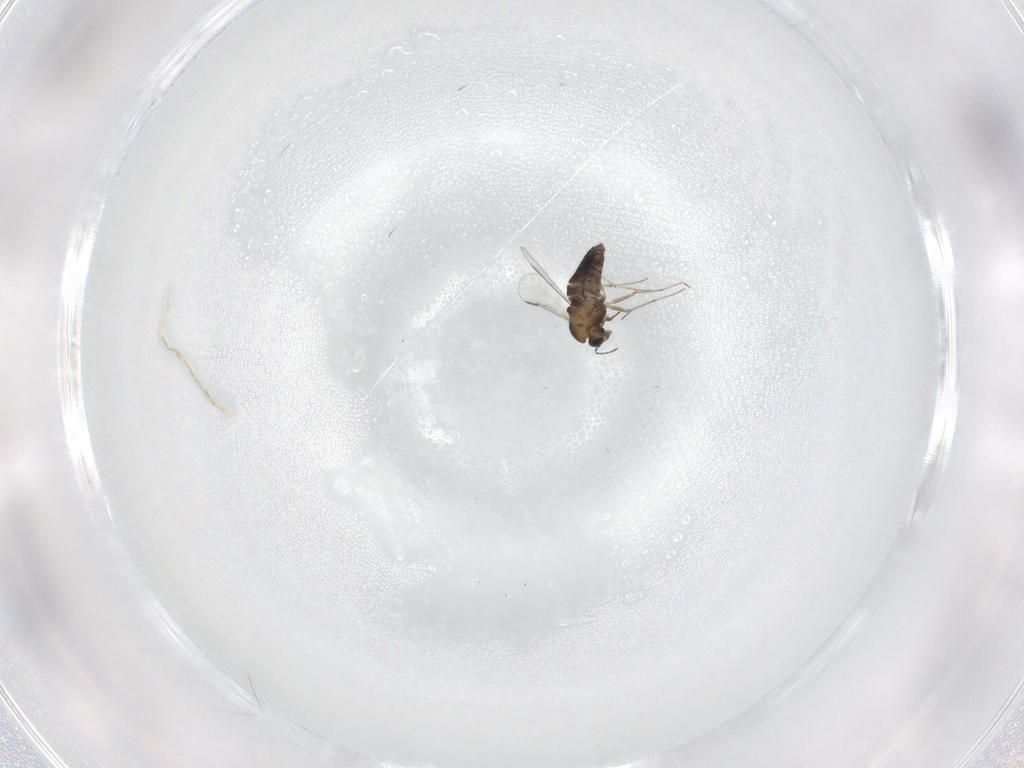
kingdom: Animalia
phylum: Arthropoda
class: Insecta
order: Diptera
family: Chironomidae
